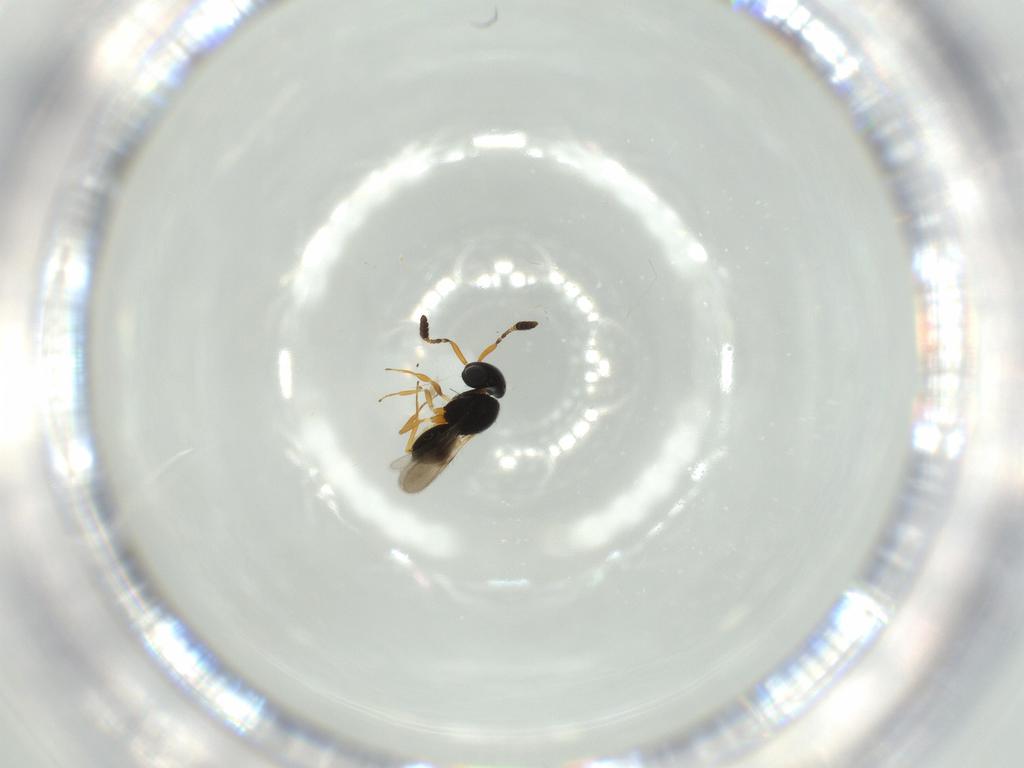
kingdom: Animalia
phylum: Arthropoda
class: Insecta
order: Hymenoptera
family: Scelionidae
